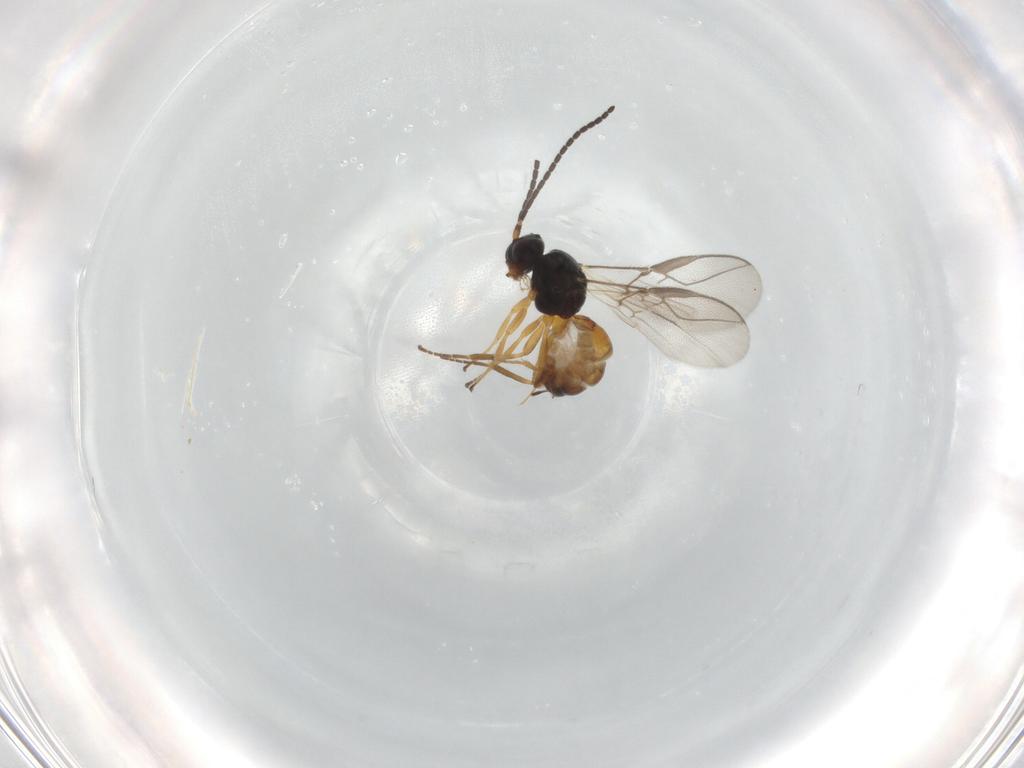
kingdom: Animalia
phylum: Arthropoda
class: Insecta
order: Hymenoptera
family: Braconidae
